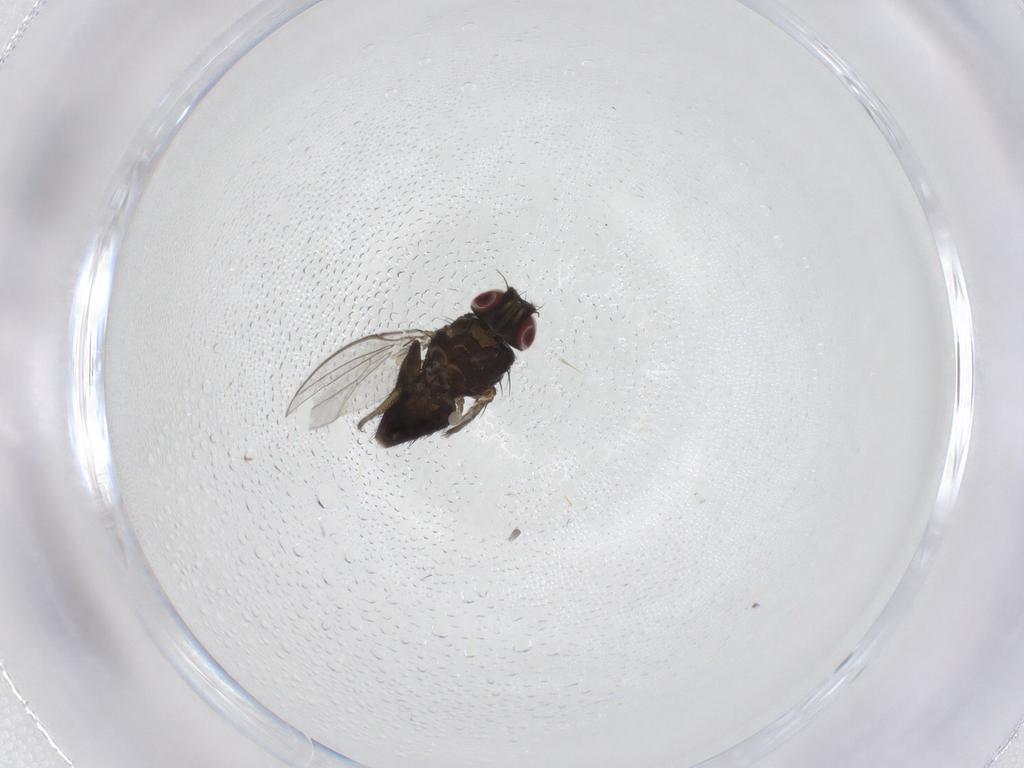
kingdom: Animalia
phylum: Arthropoda
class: Insecta
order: Diptera
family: Milichiidae
